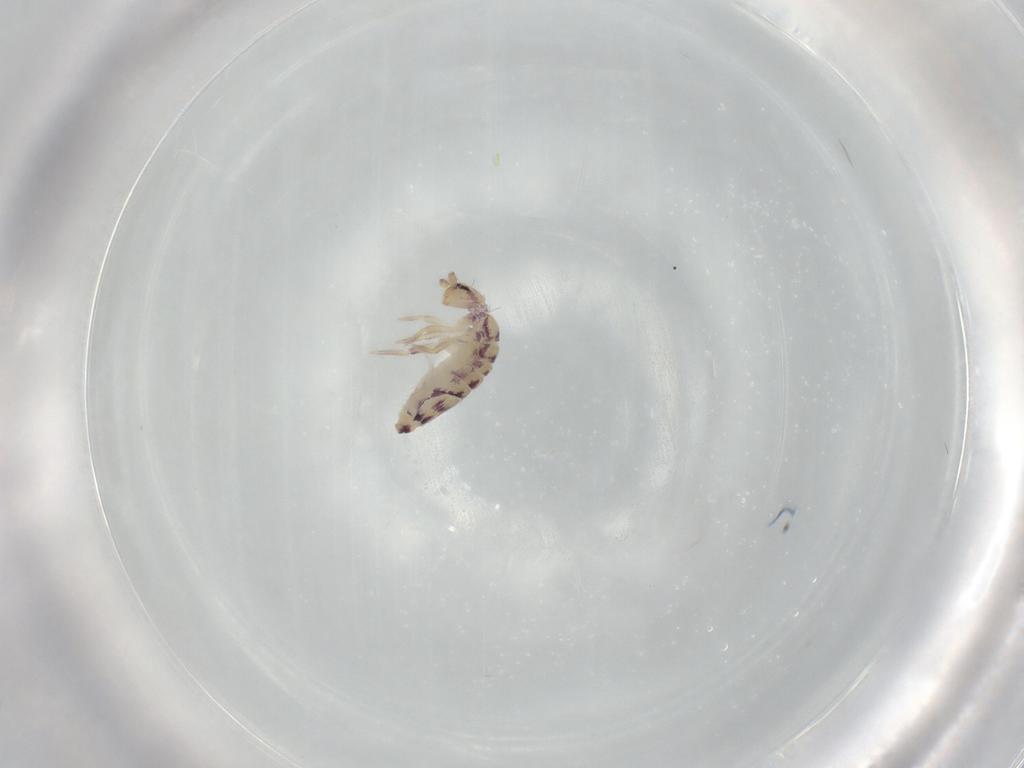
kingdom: Animalia
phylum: Arthropoda
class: Collembola
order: Entomobryomorpha
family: Entomobryidae
